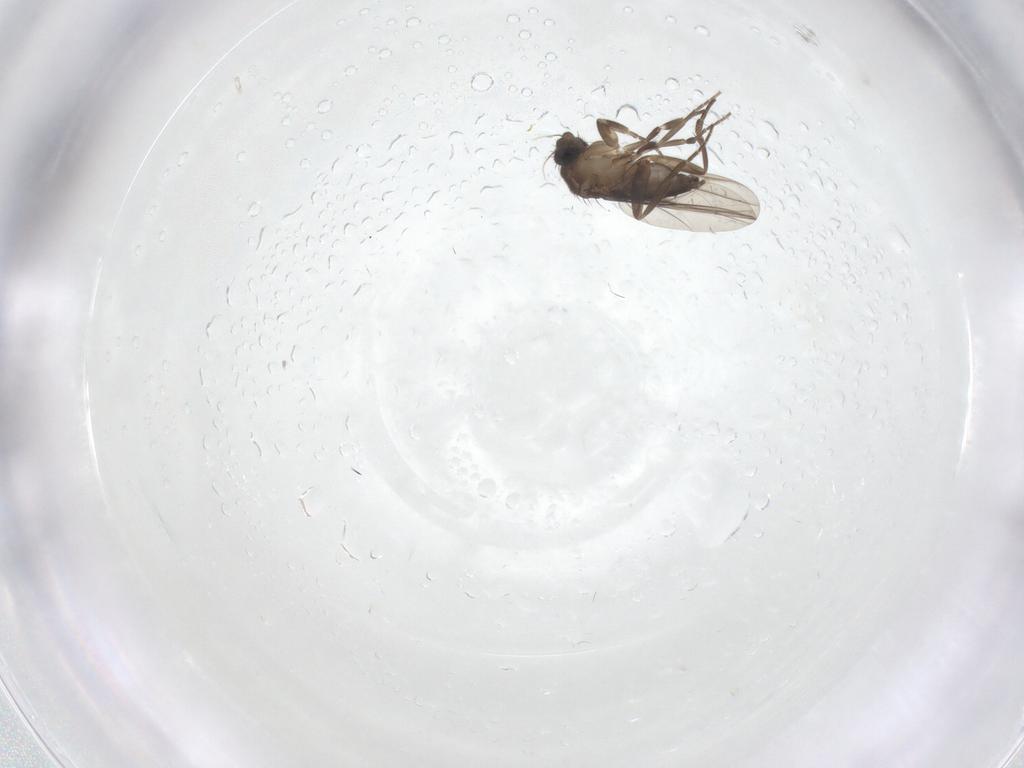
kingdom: Animalia
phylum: Arthropoda
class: Insecta
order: Diptera
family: Phoridae
